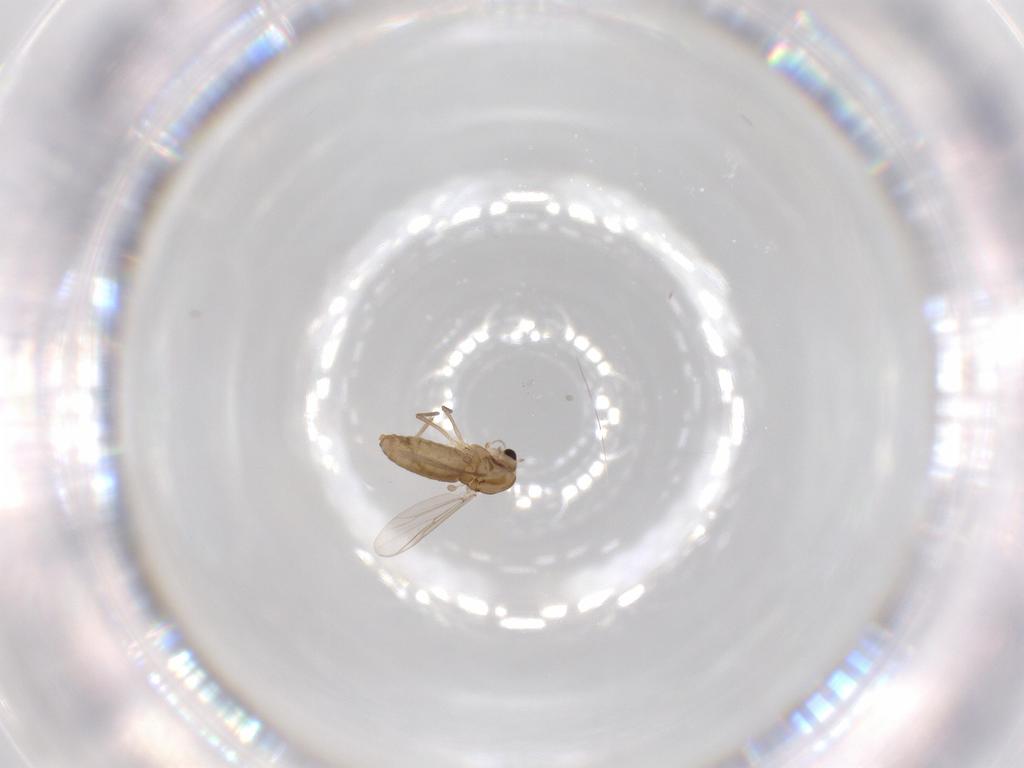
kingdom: Animalia
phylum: Arthropoda
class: Insecta
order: Diptera
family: Chironomidae
